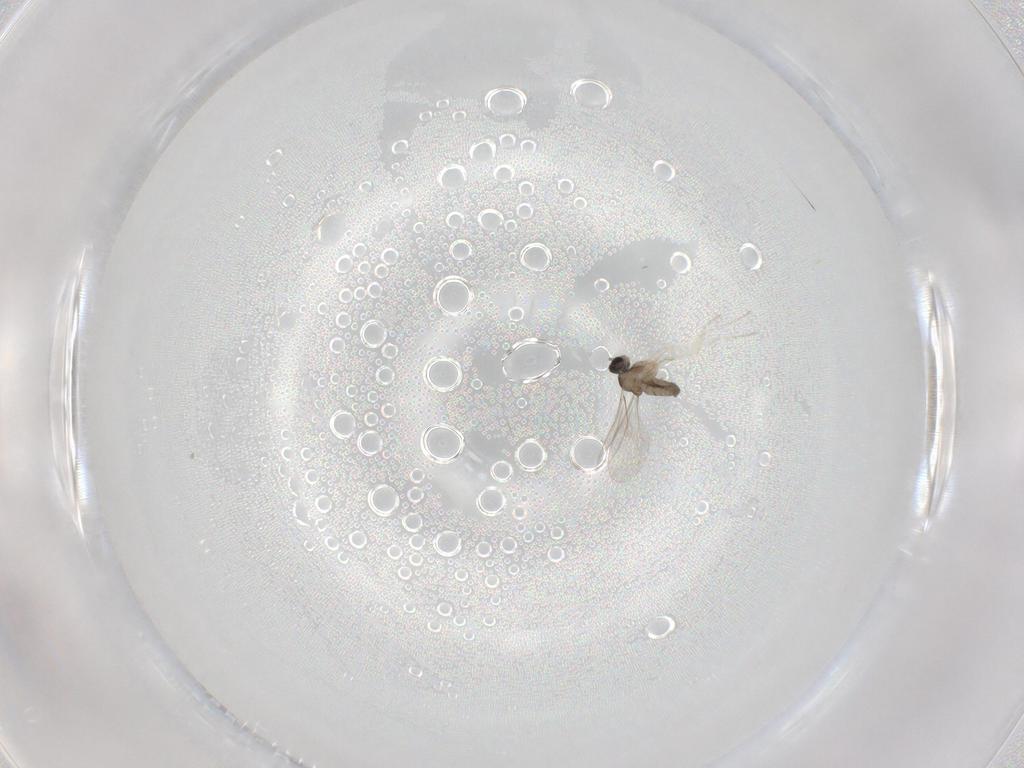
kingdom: Animalia
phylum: Arthropoda
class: Insecta
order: Diptera
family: Cecidomyiidae
